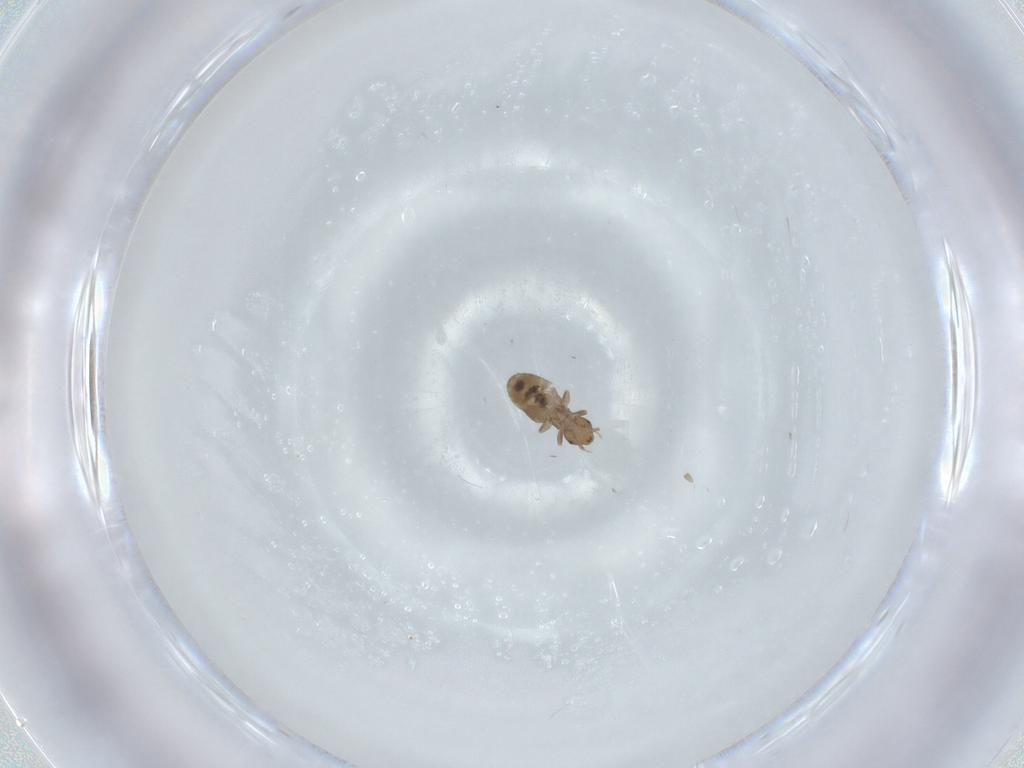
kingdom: Animalia
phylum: Arthropoda
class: Insecta
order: Psocodea
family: Liposcelididae
